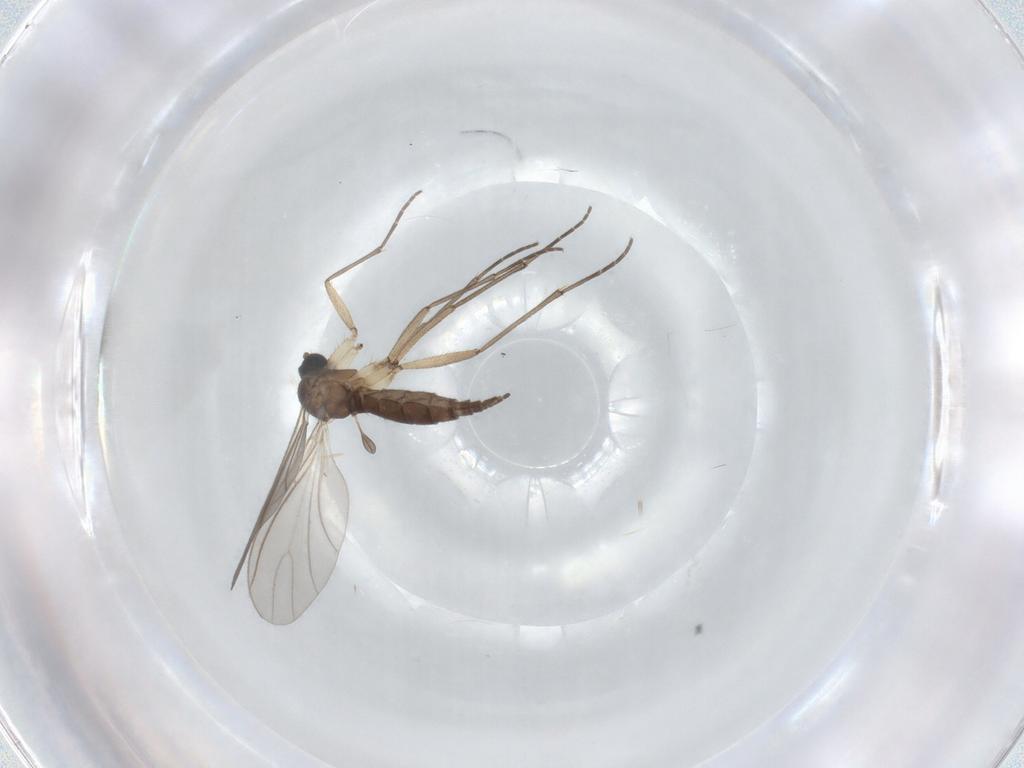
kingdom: Animalia
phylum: Arthropoda
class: Insecta
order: Diptera
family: Sciaridae
